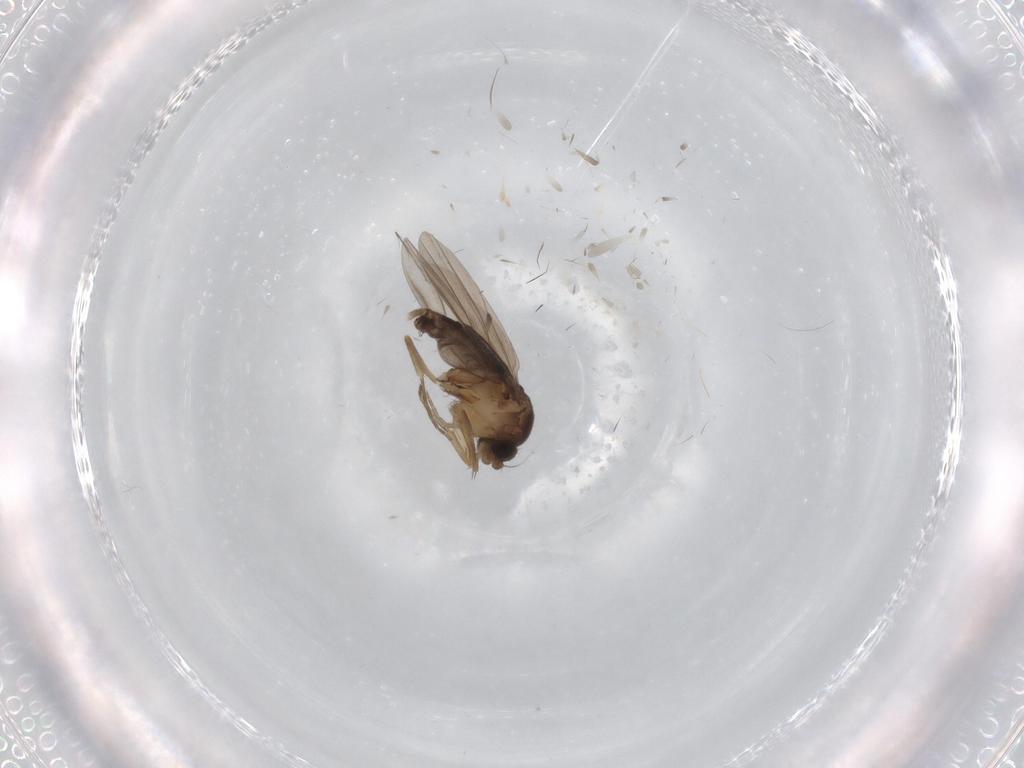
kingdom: Animalia
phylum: Arthropoda
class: Insecta
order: Diptera
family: Phoridae
